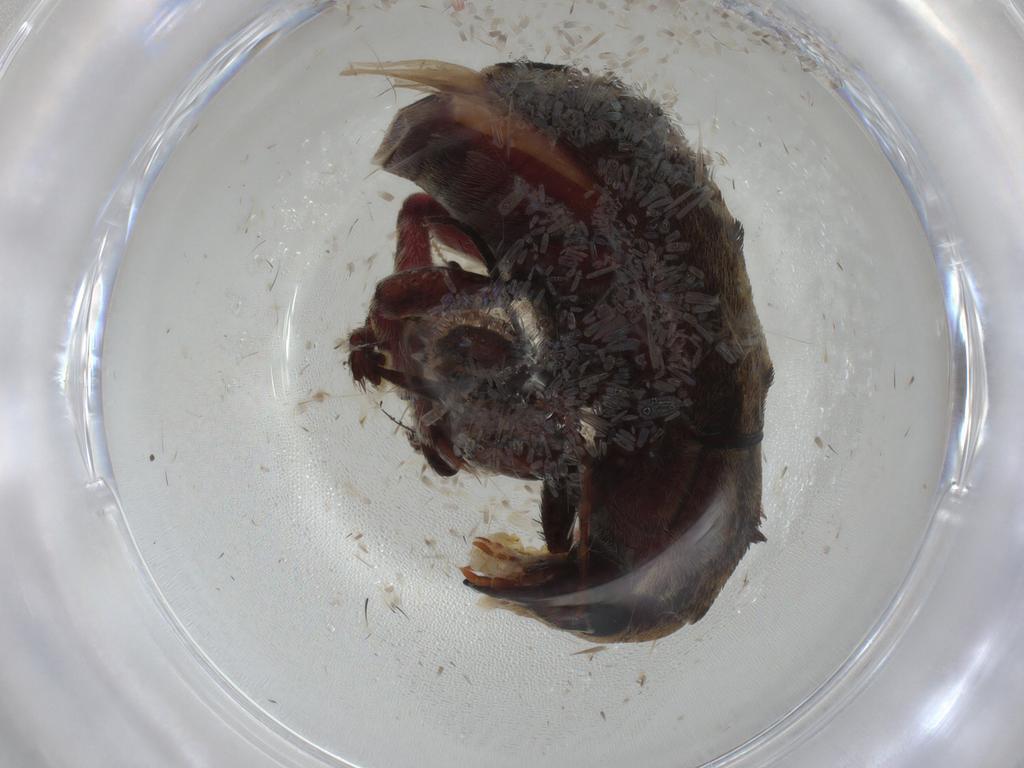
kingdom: Animalia
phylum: Arthropoda
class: Insecta
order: Coleoptera
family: Anthribidae
